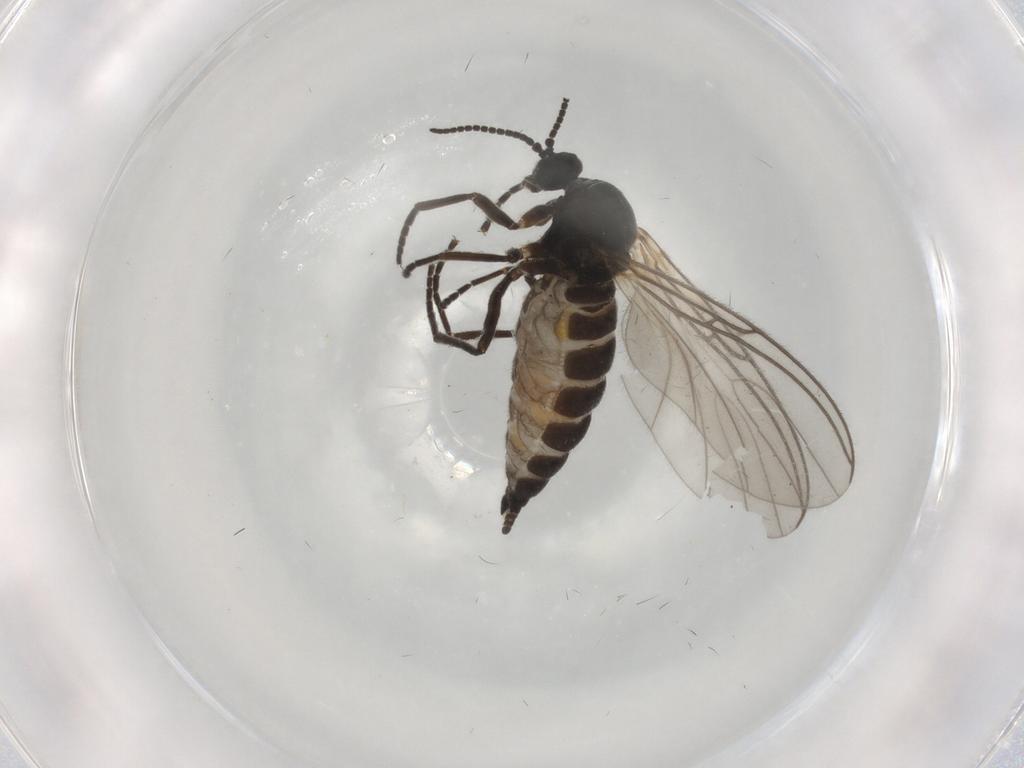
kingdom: Animalia
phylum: Arthropoda
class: Insecta
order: Diptera
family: Sciaridae
